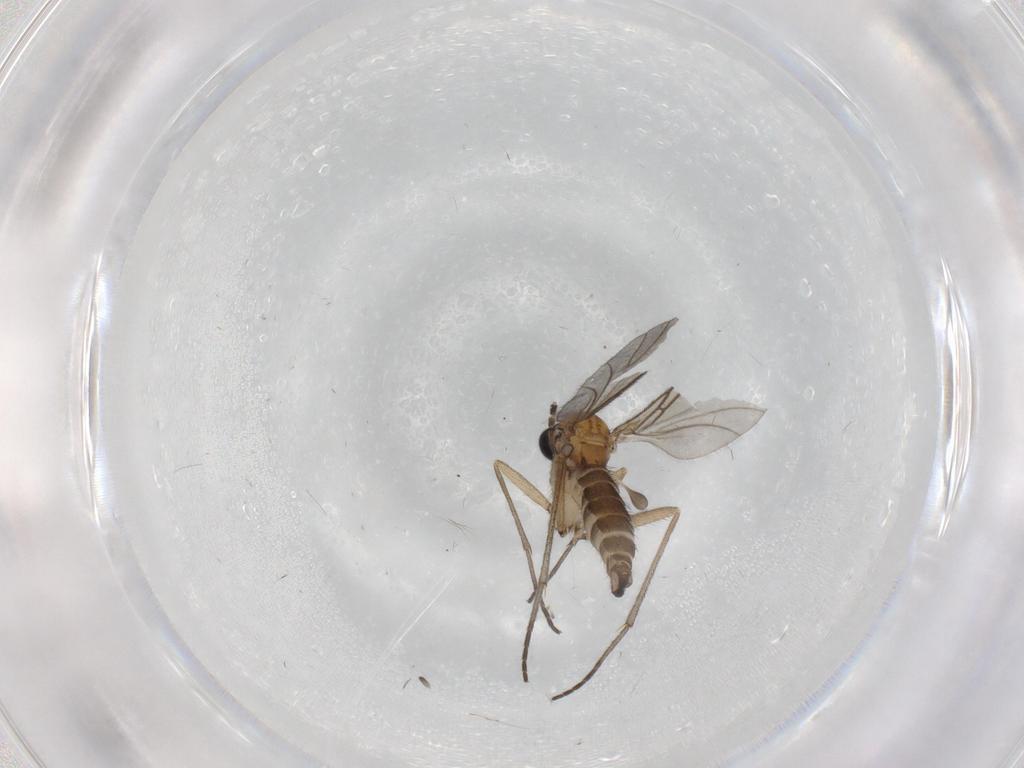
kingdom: Animalia
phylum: Arthropoda
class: Insecta
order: Diptera
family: Sciaridae
